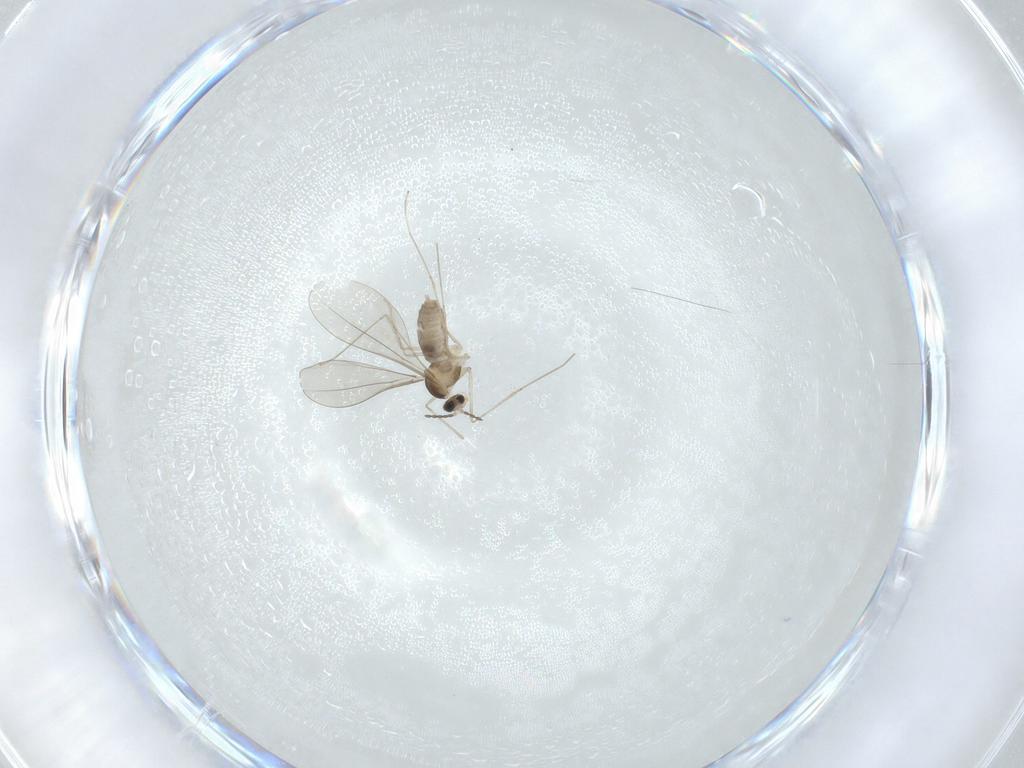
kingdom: Animalia
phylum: Arthropoda
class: Insecta
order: Diptera
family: Cecidomyiidae
